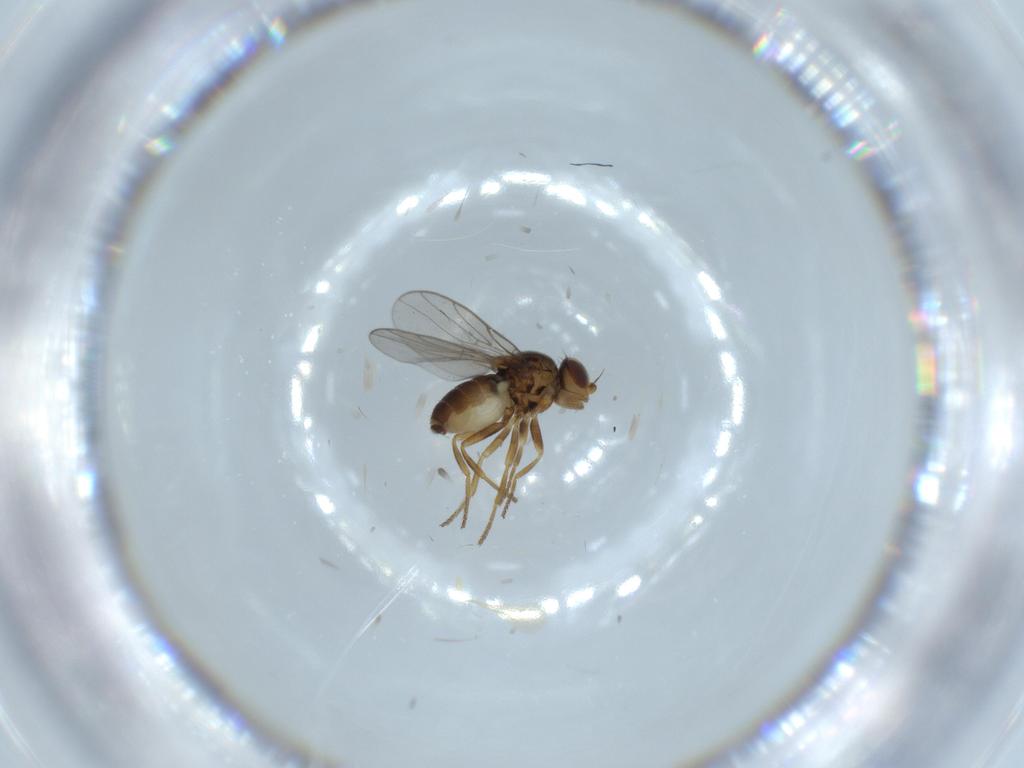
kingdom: Animalia
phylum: Arthropoda
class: Insecta
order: Diptera
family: Chloropidae
